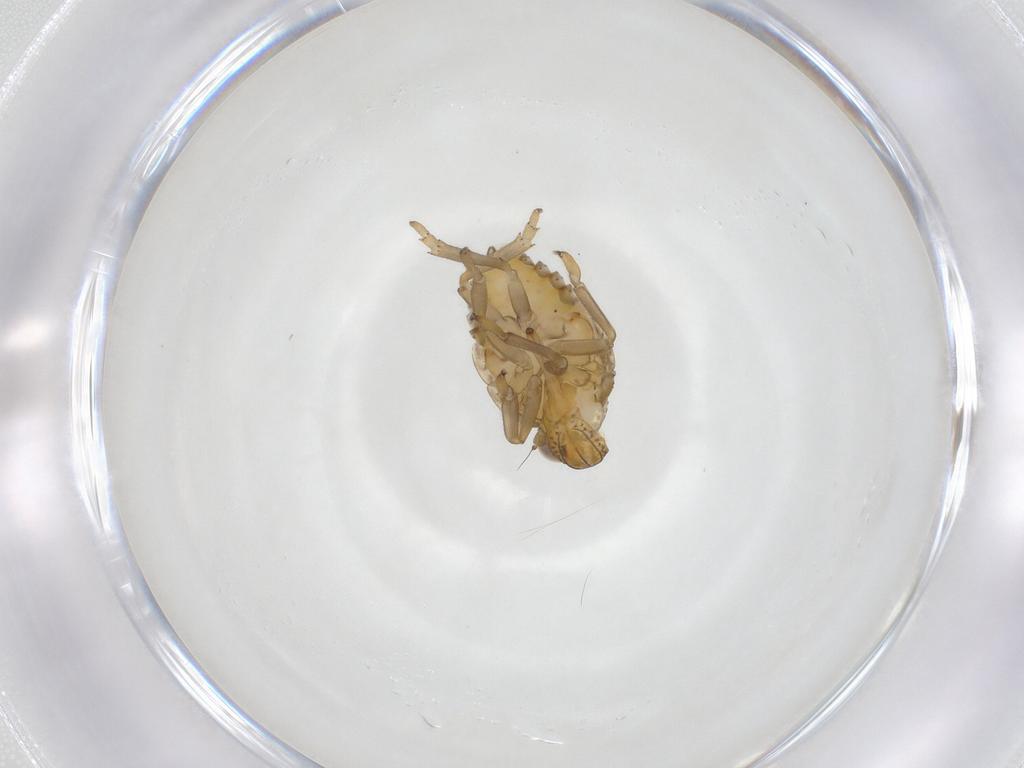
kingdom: Animalia
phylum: Arthropoda
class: Insecta
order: Hemiptera
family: Issidae
